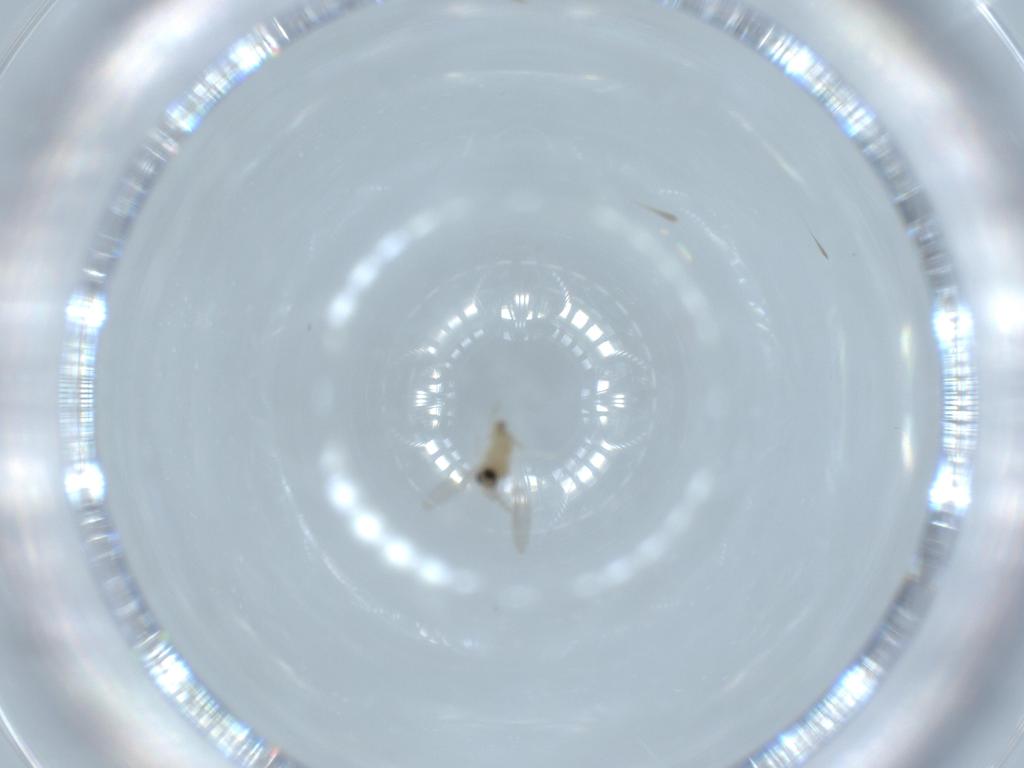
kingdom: Animalia
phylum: Arthropoda
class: Insecta
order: Diptera
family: Cecidomyiidae
